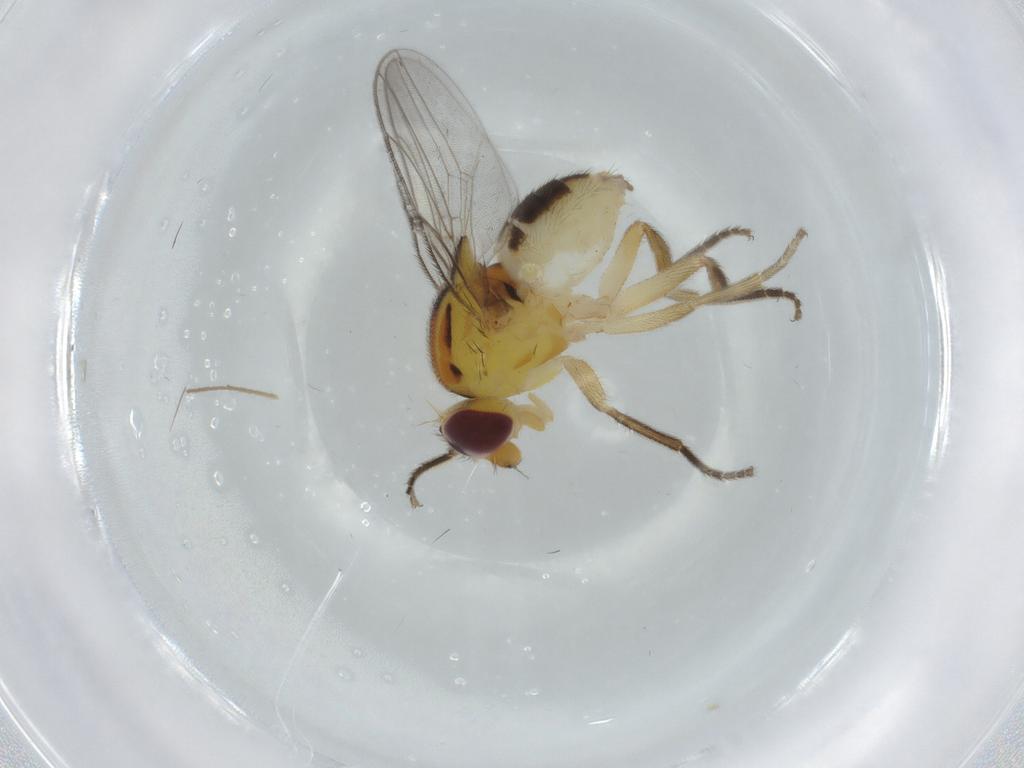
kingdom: Animalia
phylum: Arthropoda
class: Insecta
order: Diptera
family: Chloropidae
